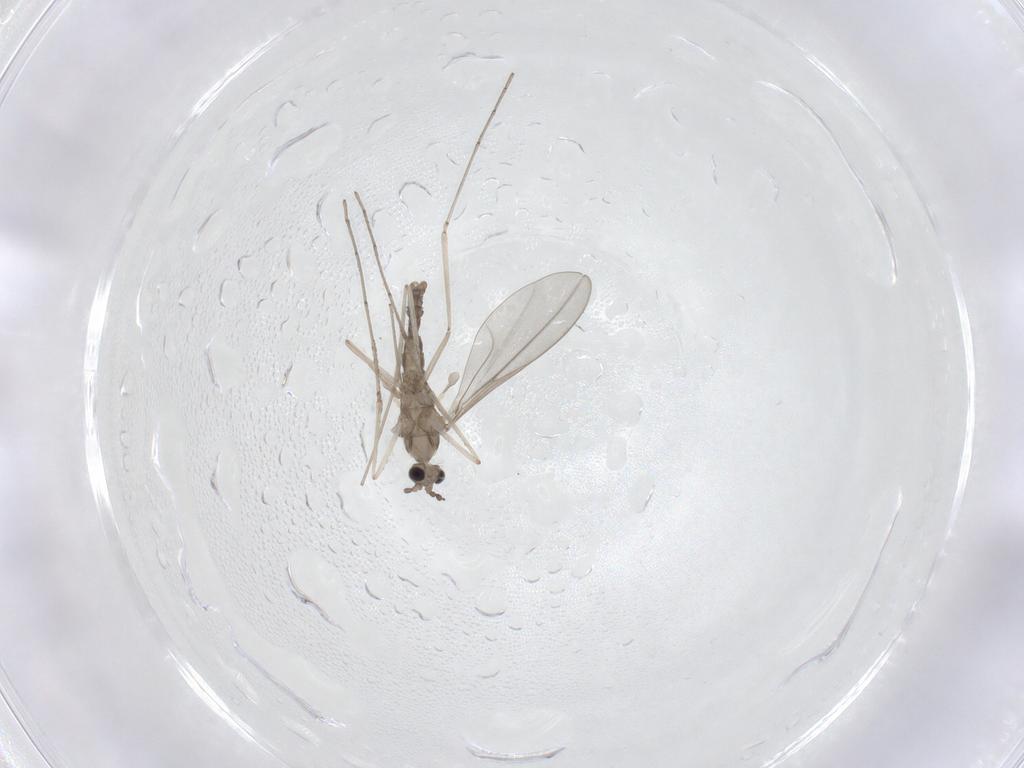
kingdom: Animalia
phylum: Arthropoda
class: Insecta
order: Diptera
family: Cecidomyiidae
